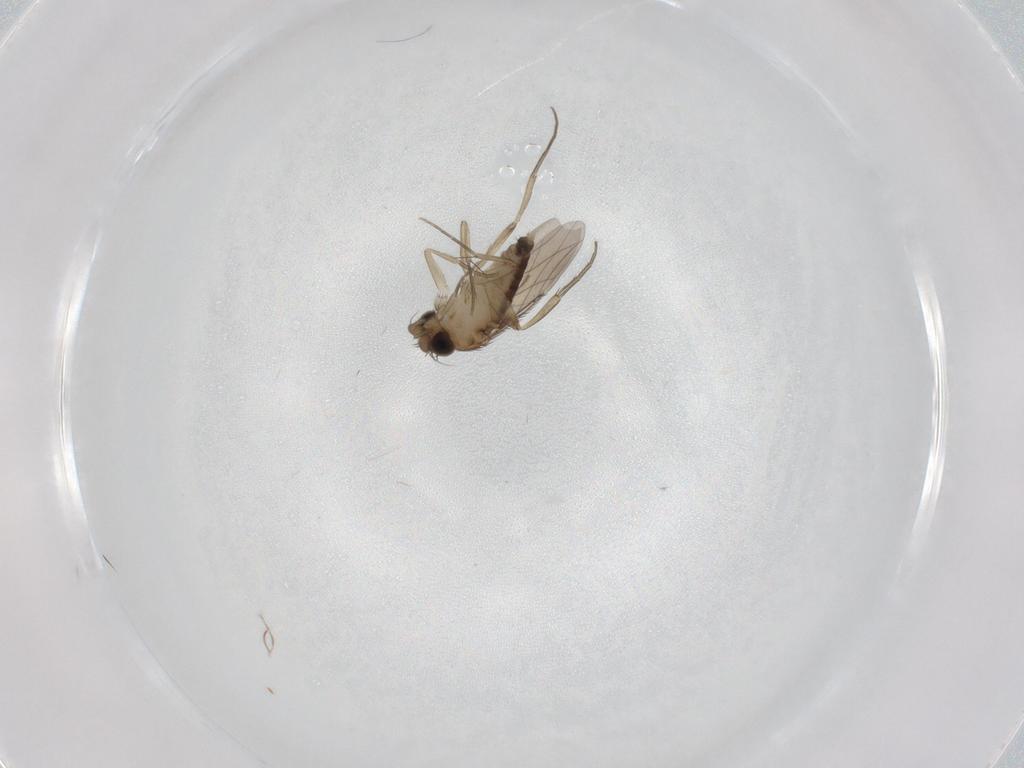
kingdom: Animalia
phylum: Arthropoda
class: Insecta
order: Diptera
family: Phoridae
